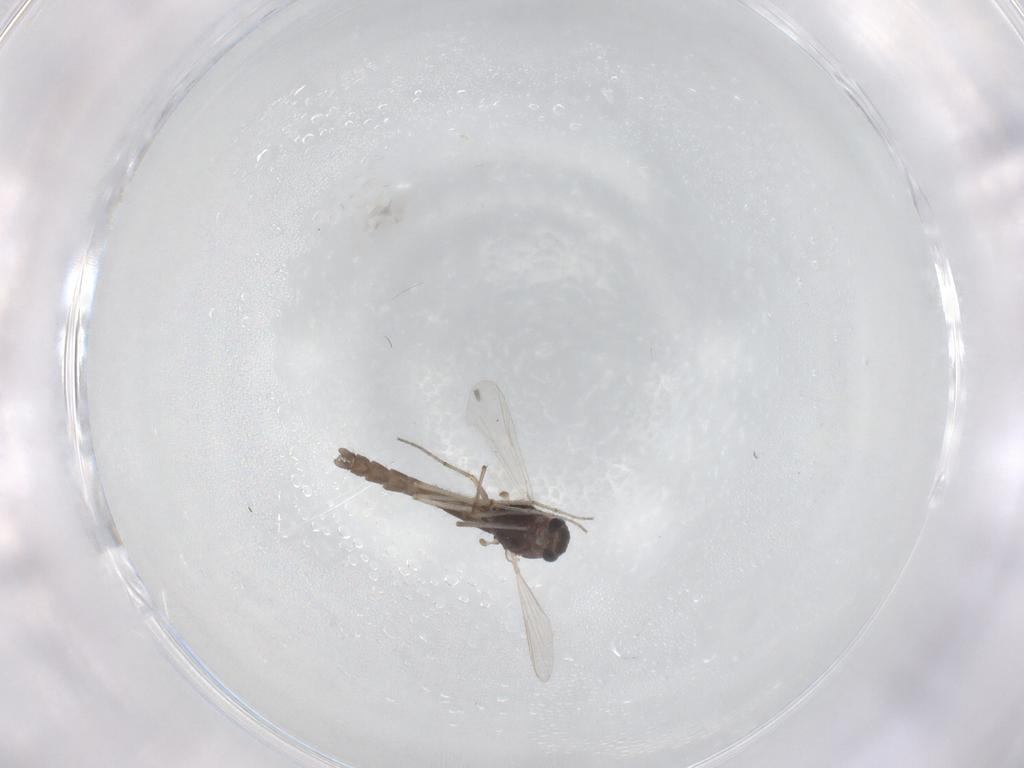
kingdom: Animalia
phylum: Arthropoda
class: Insecta
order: Diptera
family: Chironomidae
